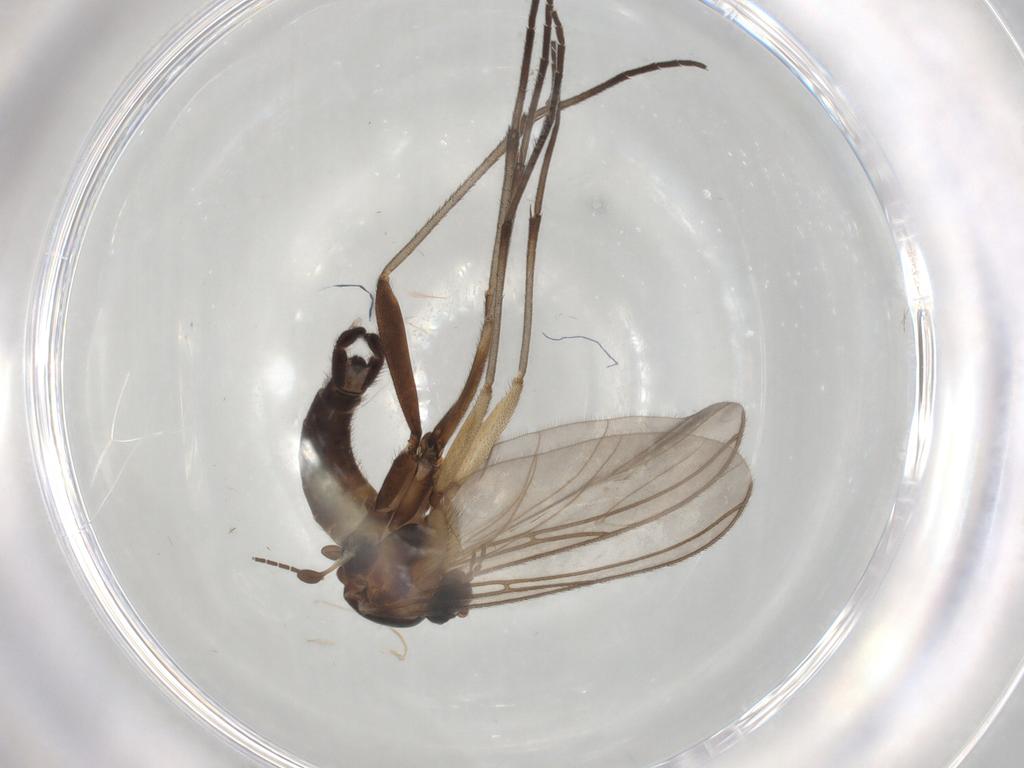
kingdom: Animalia
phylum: Arthropoda
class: Insecta
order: Diptera
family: Sciaridae
